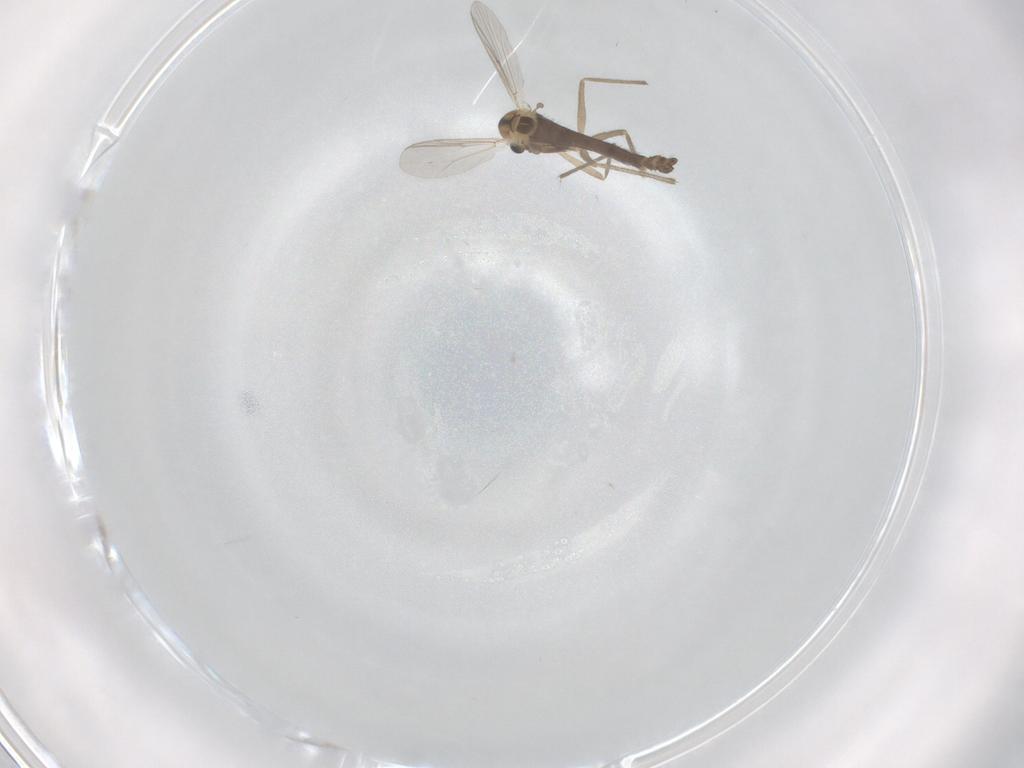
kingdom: Animalia
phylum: Arthropoda
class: Insecta
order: Diptera
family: Chironomidae
